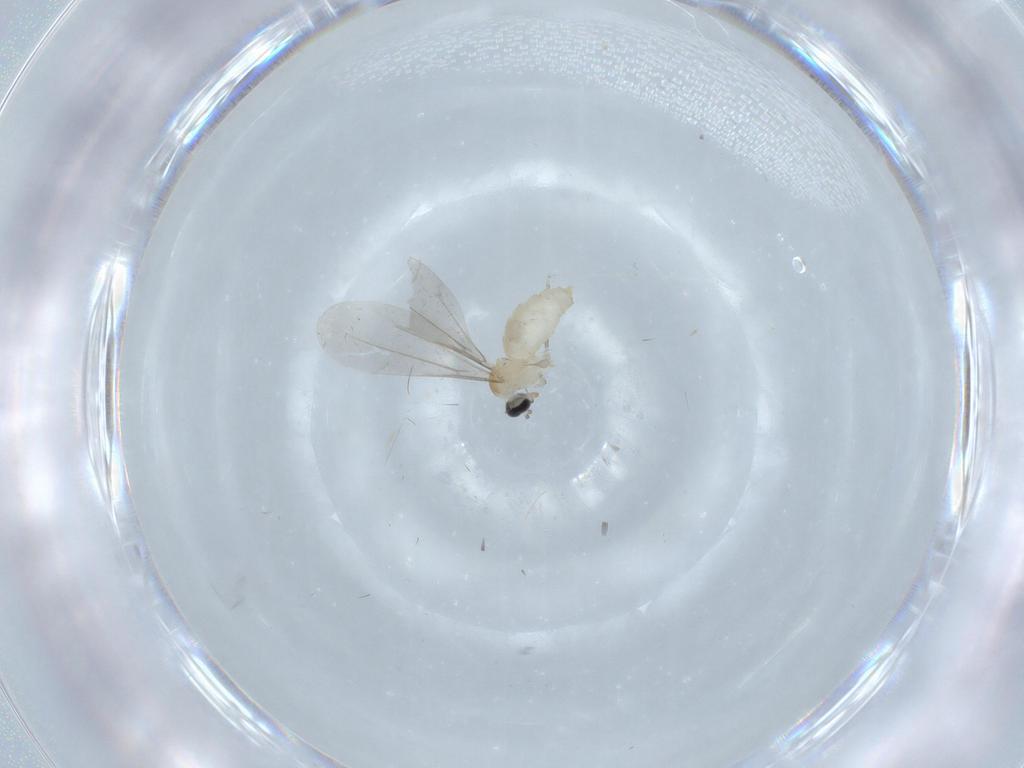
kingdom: Animalia
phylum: Arthropoda
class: Insecta
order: Diptera
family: Cecidomyiidae
